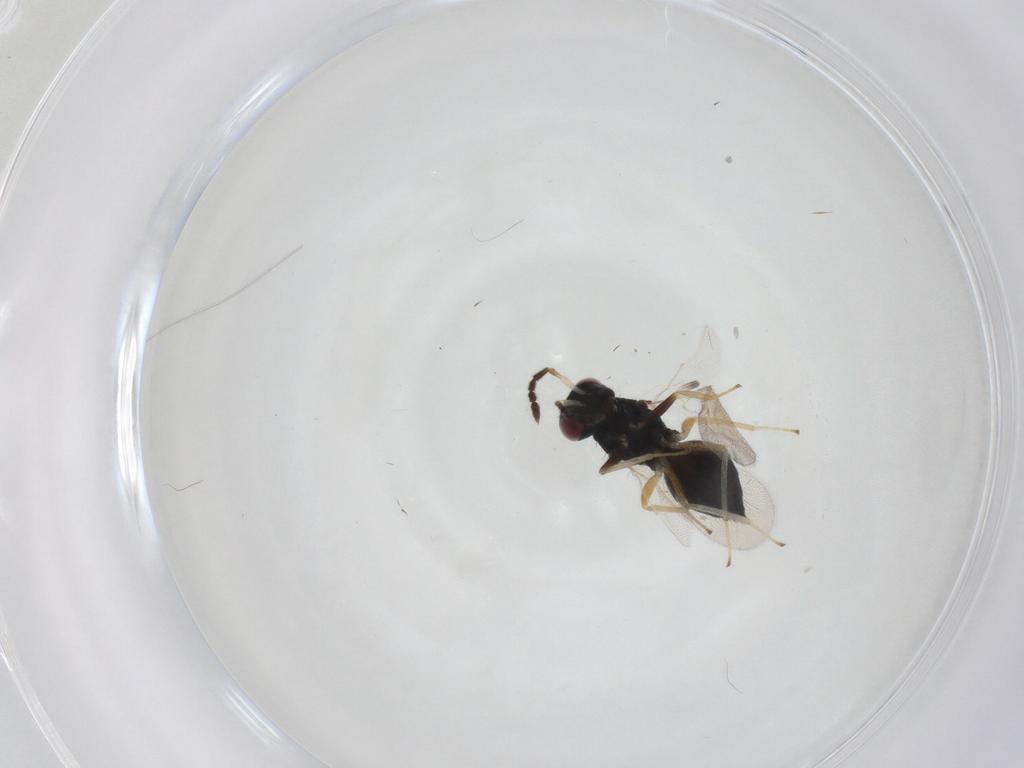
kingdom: Animalia
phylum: Arthropoda
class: Insecta
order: Hymenoptera
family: Eulophidae
